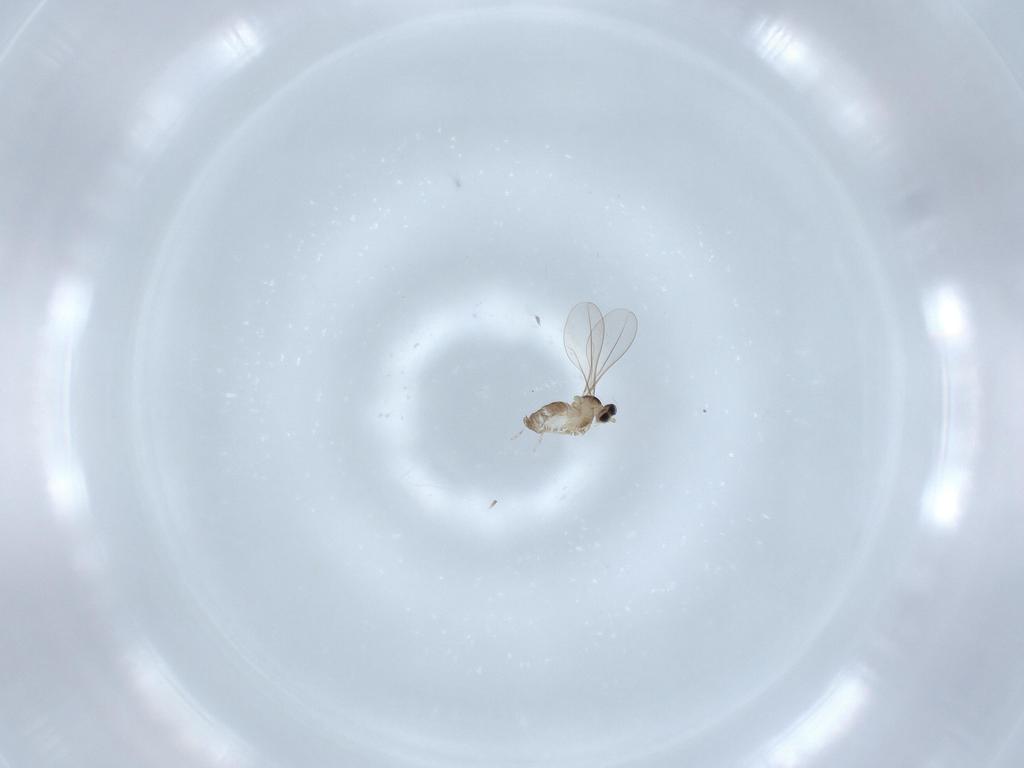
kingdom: Animalia
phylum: Arthropoda
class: Insecta
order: Diptera
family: Cecidomyiidae
